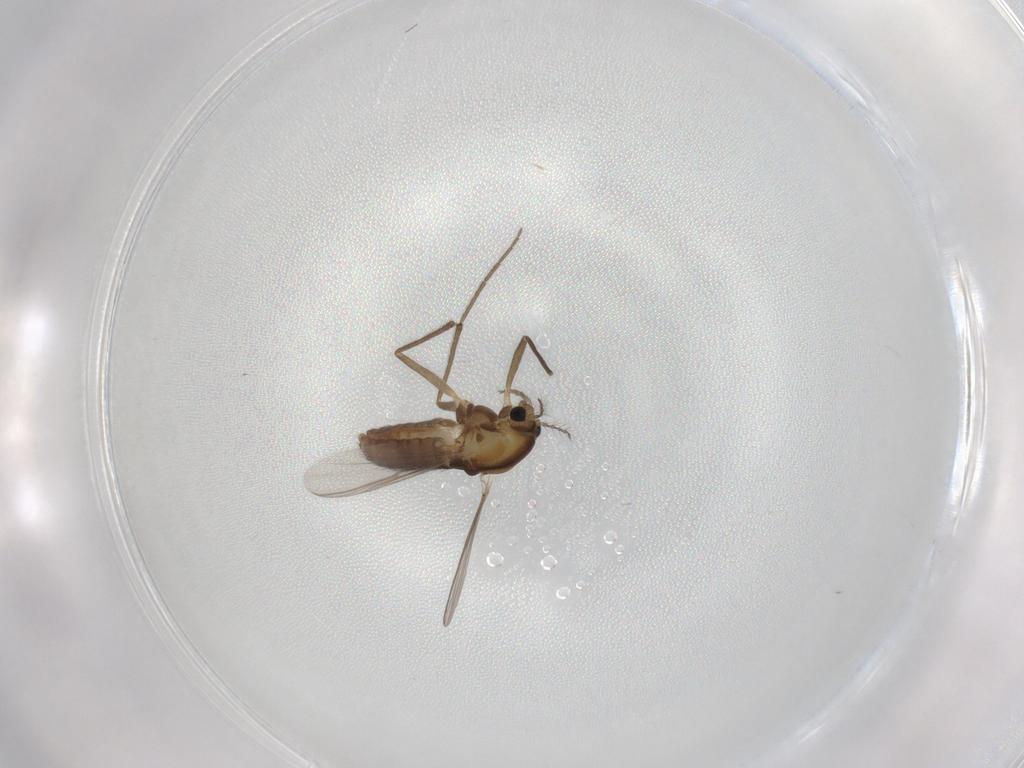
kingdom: Animalia
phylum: Arthropoda
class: Insecta
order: Diptera
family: Chironomidae
